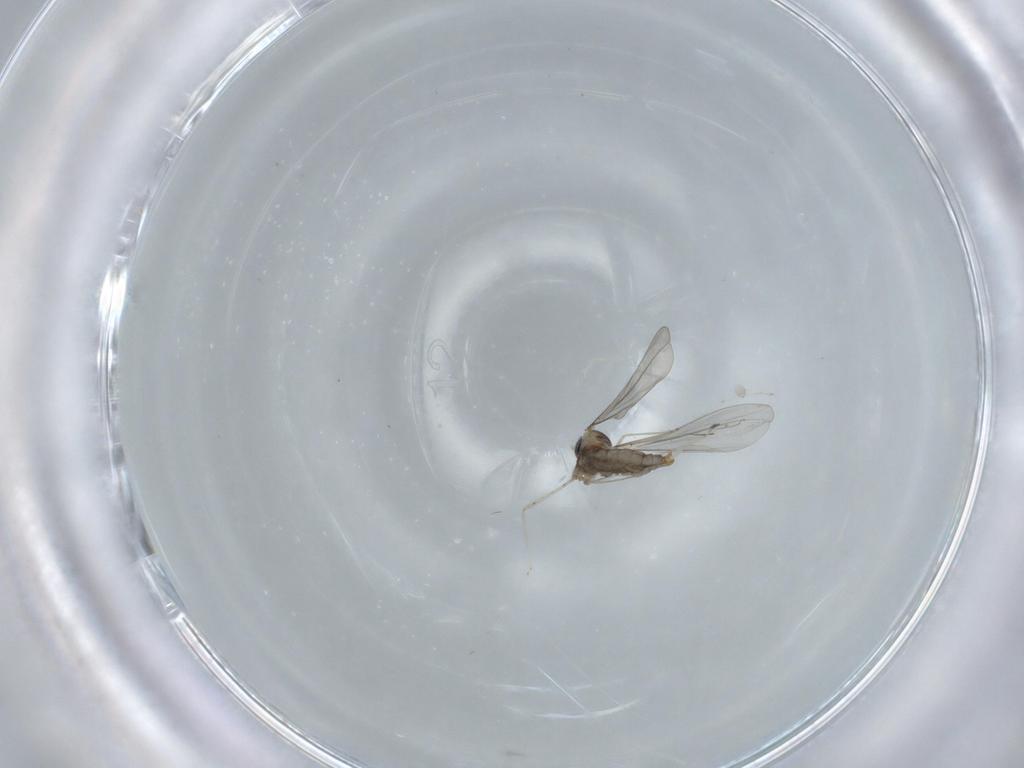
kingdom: Animalia
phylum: Arthropoda
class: Insecta
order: Diptera
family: Cecidomyiidae
